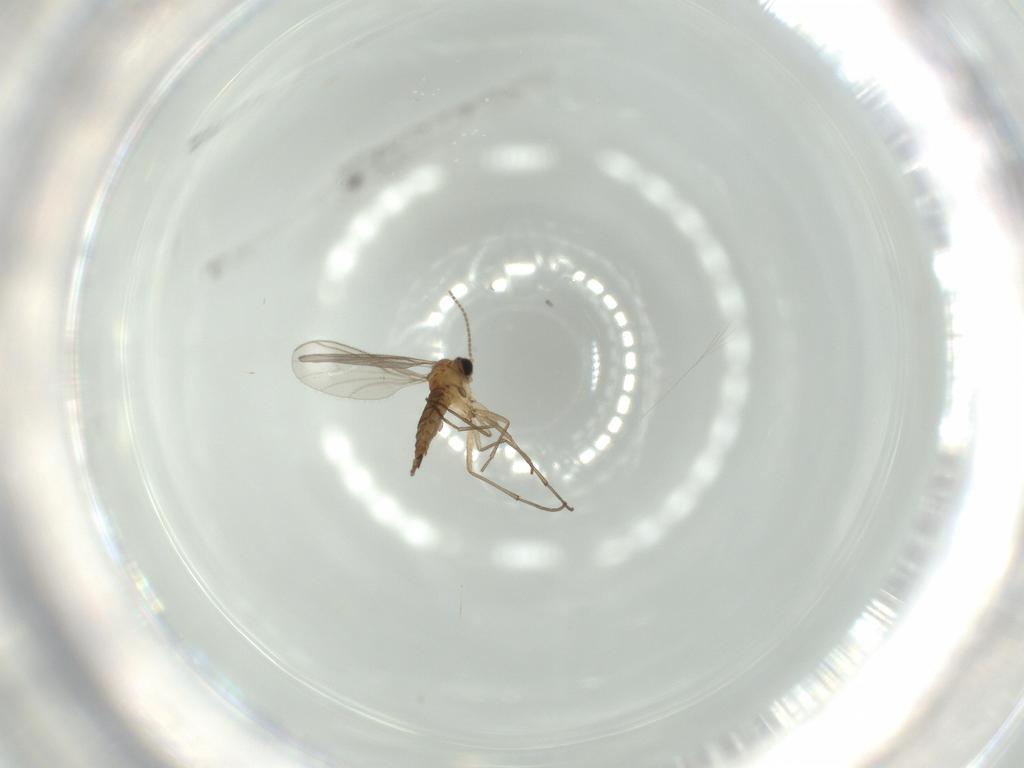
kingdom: Animalia
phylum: Arthropoda
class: Insecta
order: Diptera
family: Sciaridae
